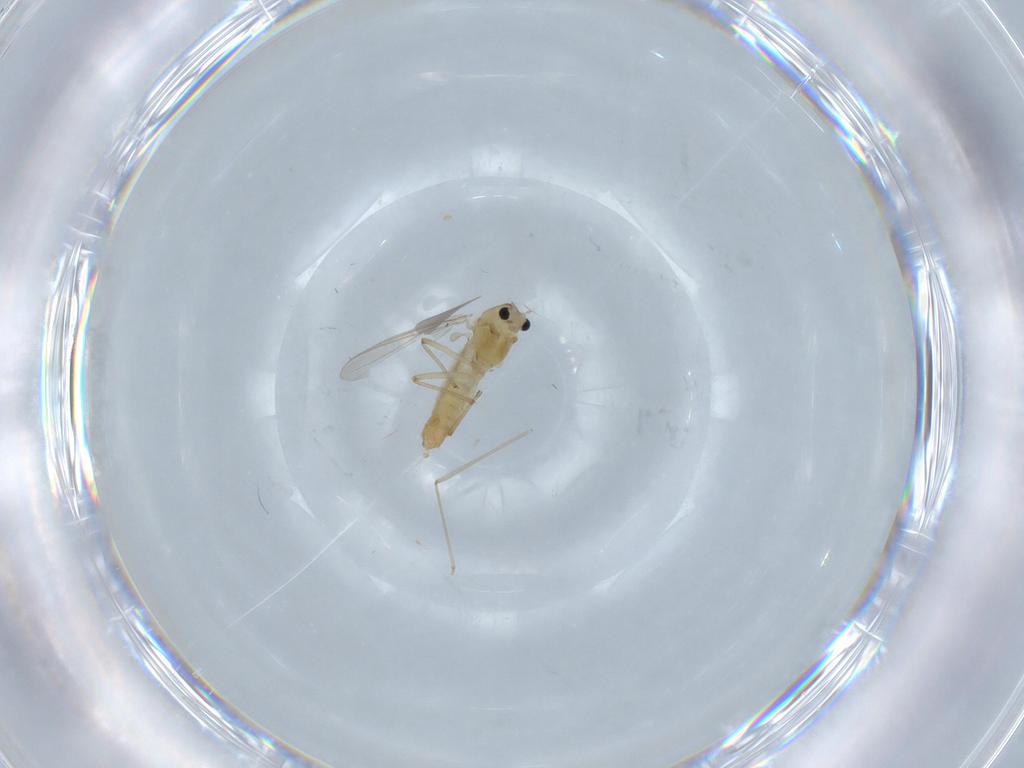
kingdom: Animalia
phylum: Arthropoda
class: Insecta
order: Diptera
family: Chironomidae
